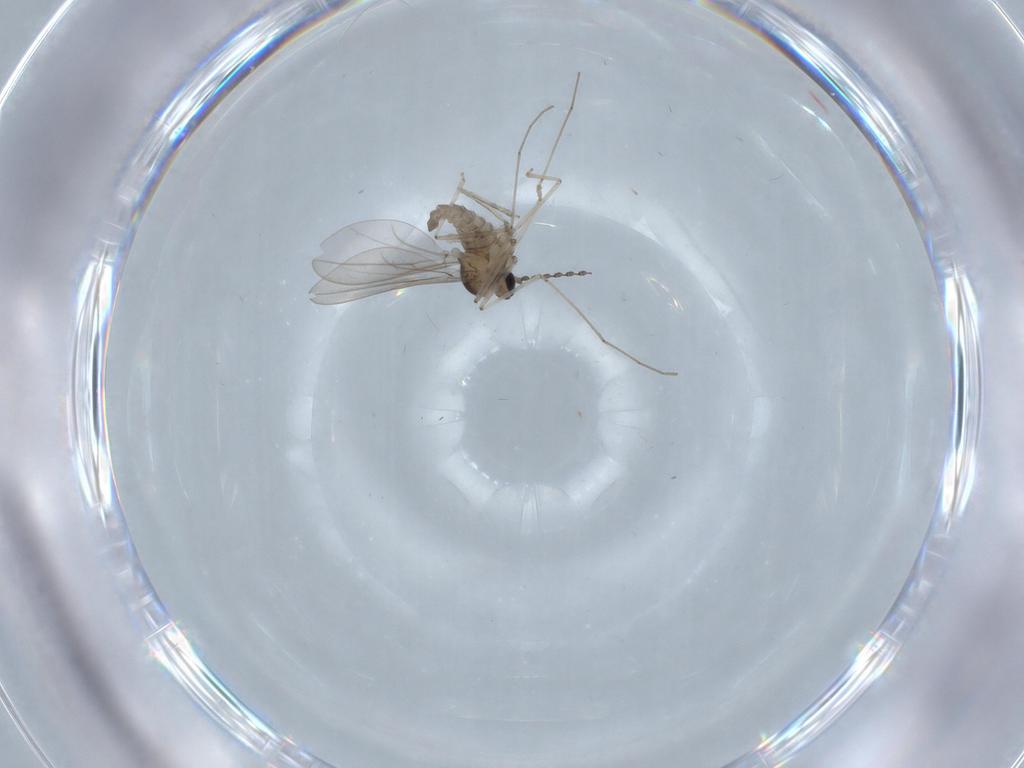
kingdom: Animalia
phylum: Arthropoda
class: Insecta
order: Diptera
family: Cecidomyiidae
